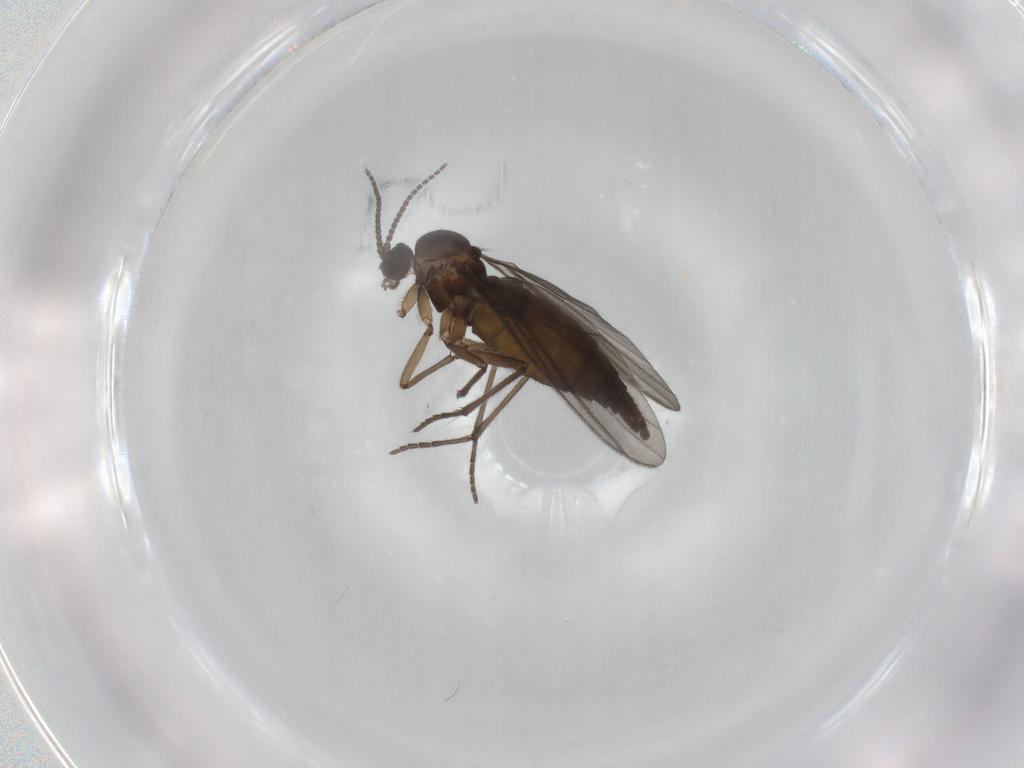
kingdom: Animalia
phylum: Arthropoda
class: Insecta
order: Diptera
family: Sciaridae
